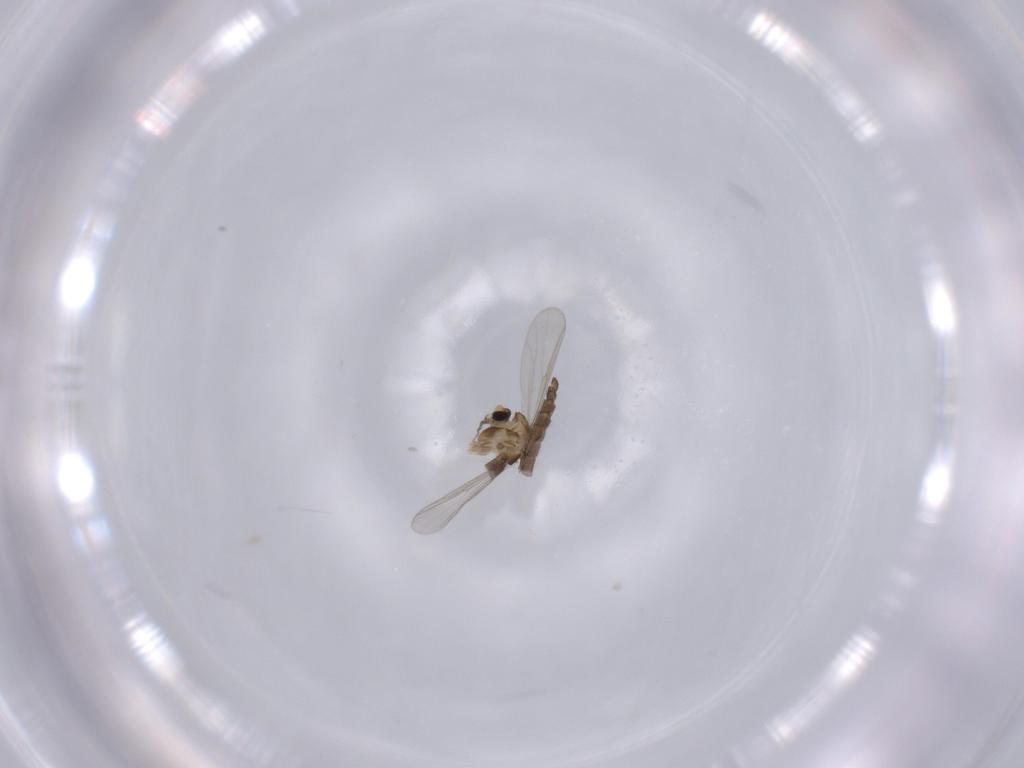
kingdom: Animalia
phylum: Arthropoda
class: Insecta
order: Diptera
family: Chironomidae
